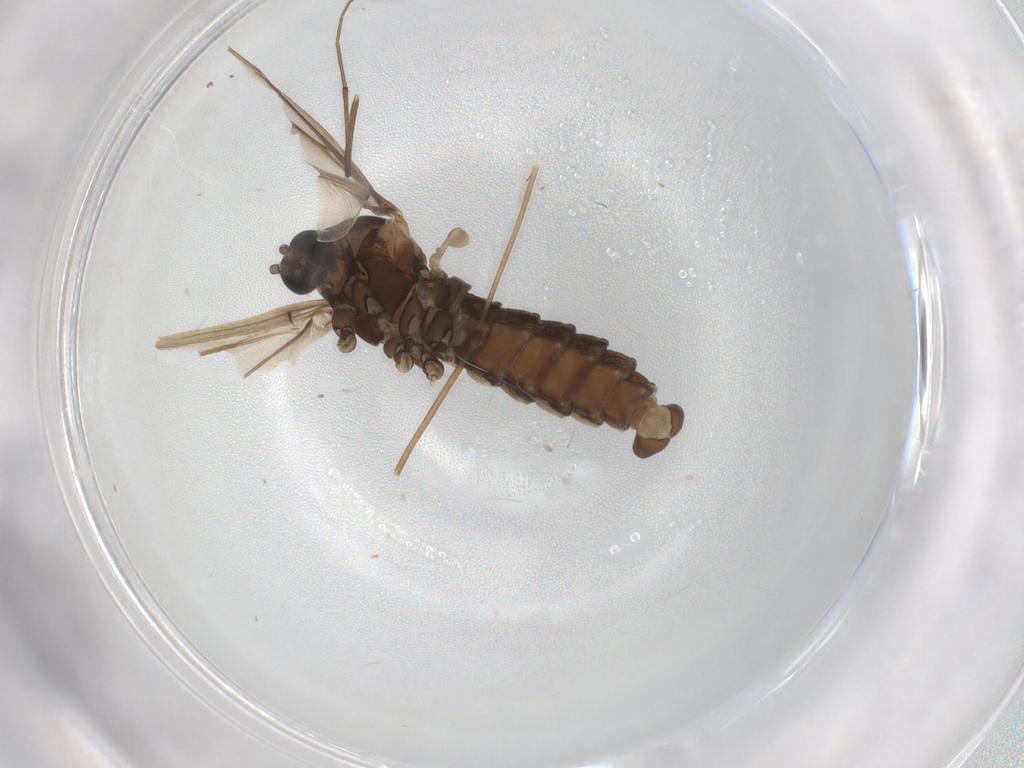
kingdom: Animalia
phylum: Arthropoda
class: Insecta
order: Diptera
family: Cecidomyiidae
